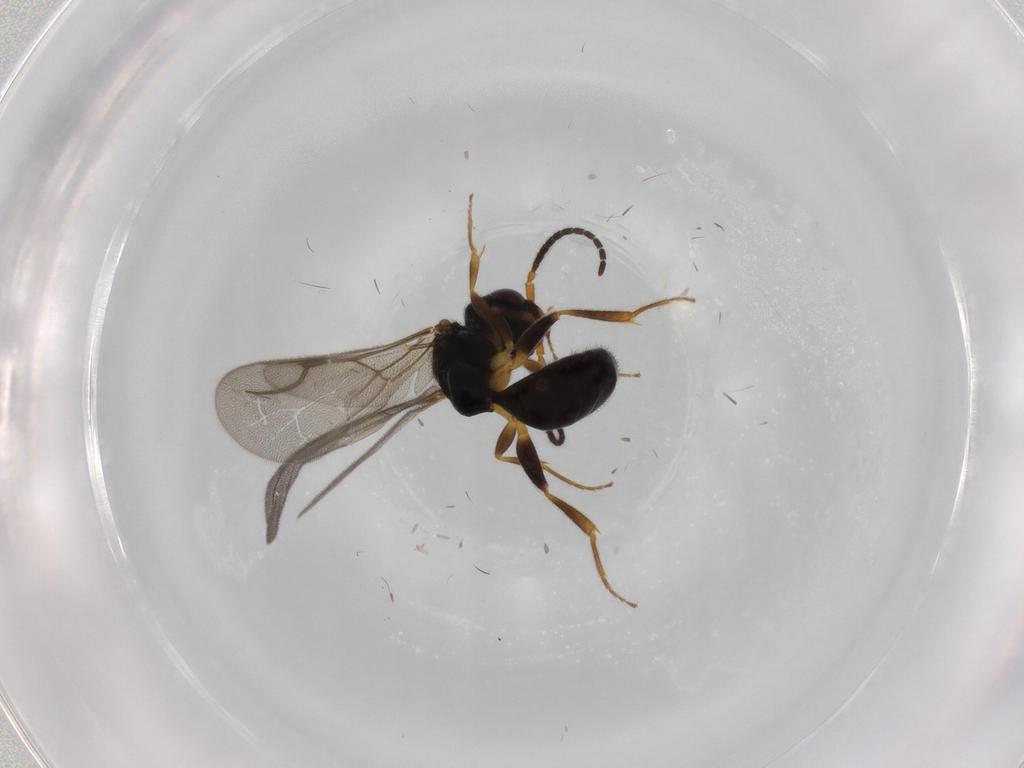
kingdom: Animalia
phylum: Arthropoda
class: Insecta
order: Hymenoptera
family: Bethylidae
